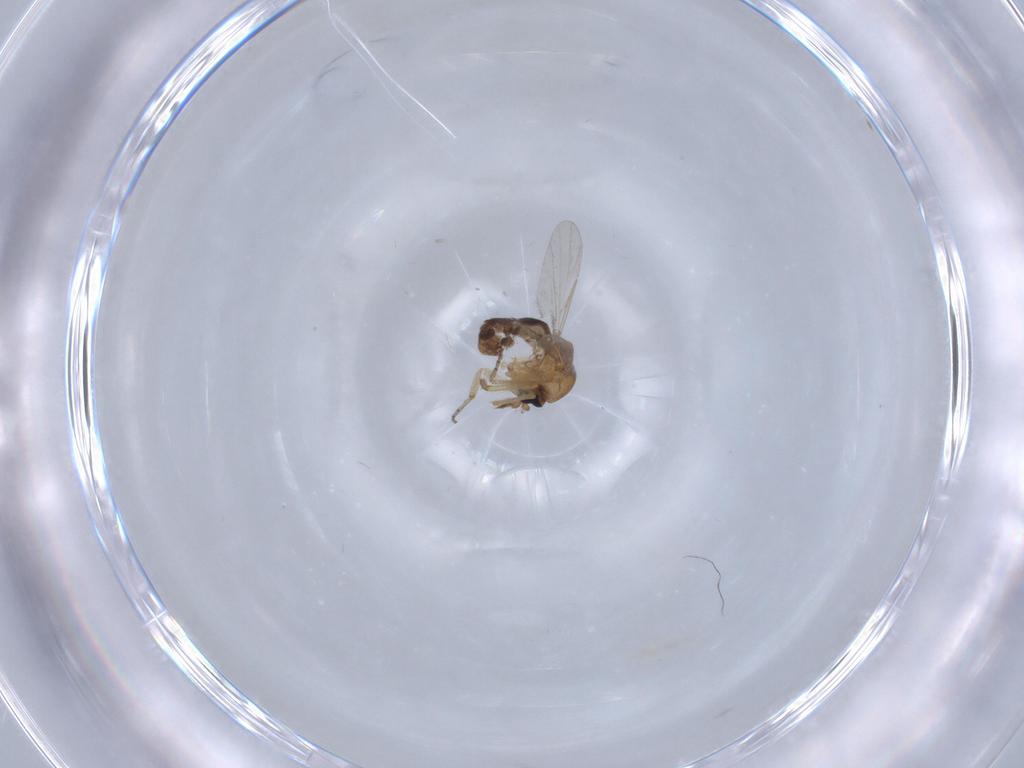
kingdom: Animalia
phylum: Arthropoda
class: Insecta
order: Diptera
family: Ceratopogonidae
